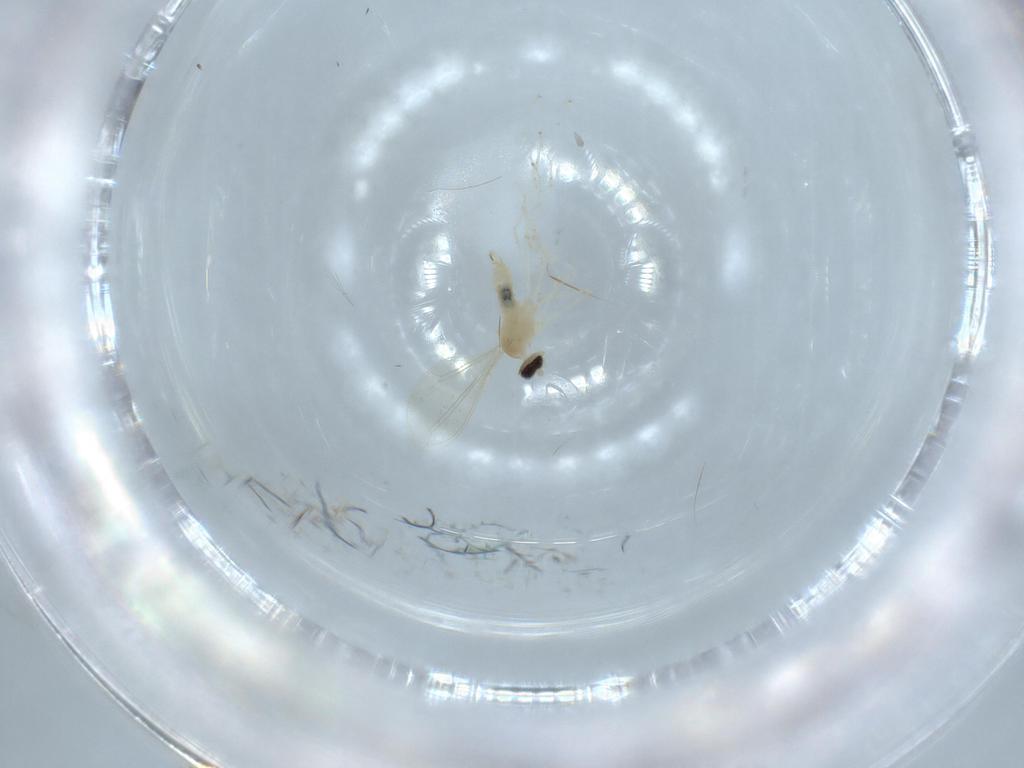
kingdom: Animalia
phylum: Arthropoda
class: Insecta
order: Diptera
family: Cecidomyiidae
